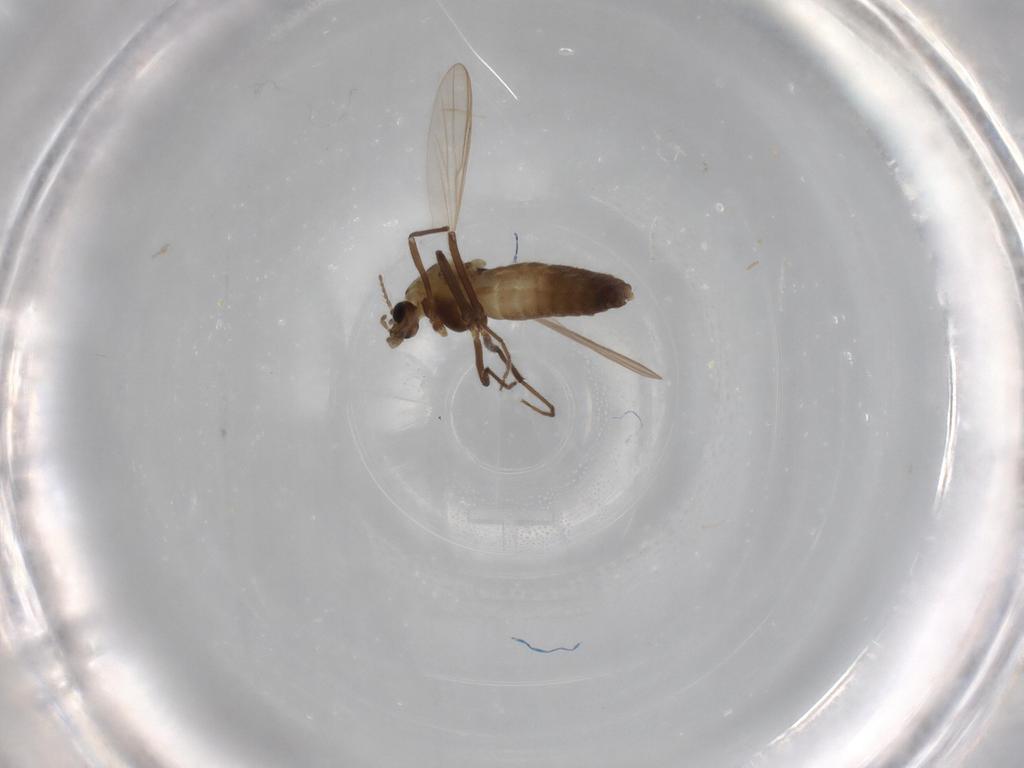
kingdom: Animalia
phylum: Arthropoda
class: Insecta
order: Diptera
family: Chironomidae
